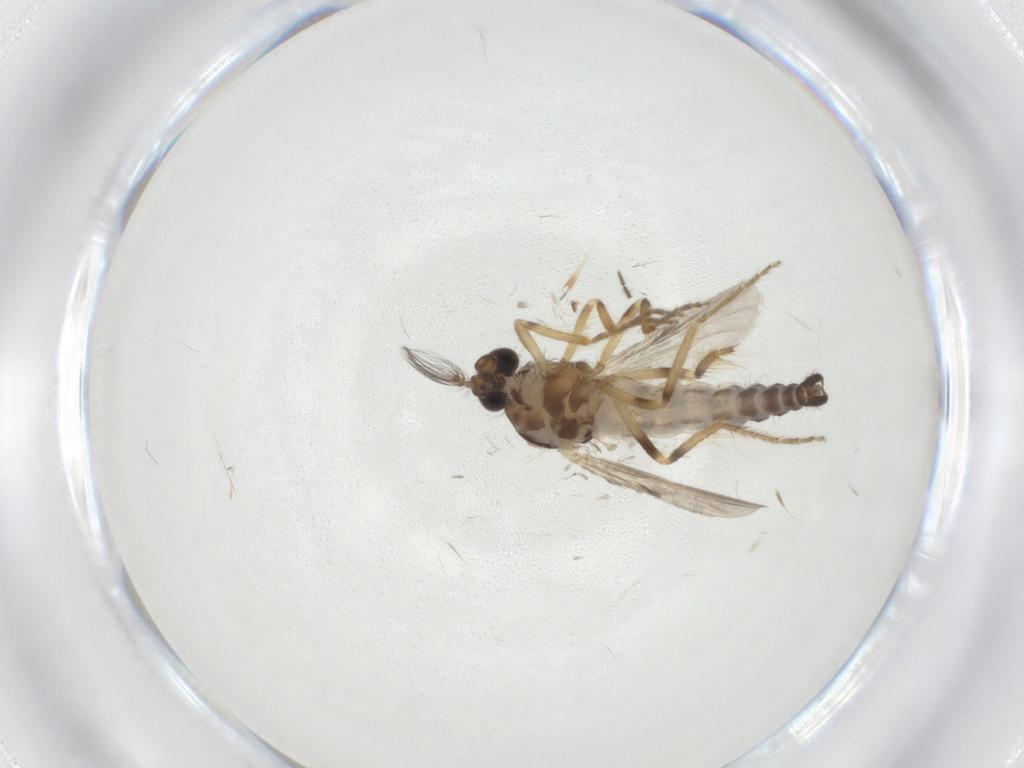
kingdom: Animalia
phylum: Arthropoda
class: Insecta
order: Diptera
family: Ceratopogonidae
